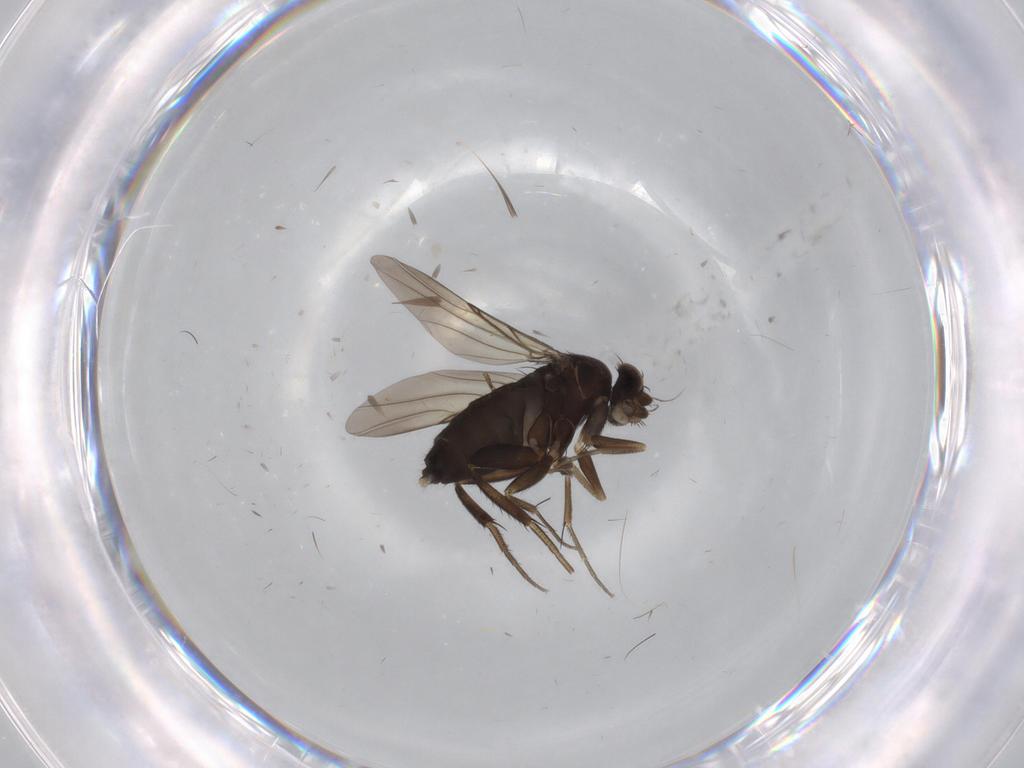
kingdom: Animalia
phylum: Arthropoda
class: Insecta
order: Diptera
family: Phoridae
